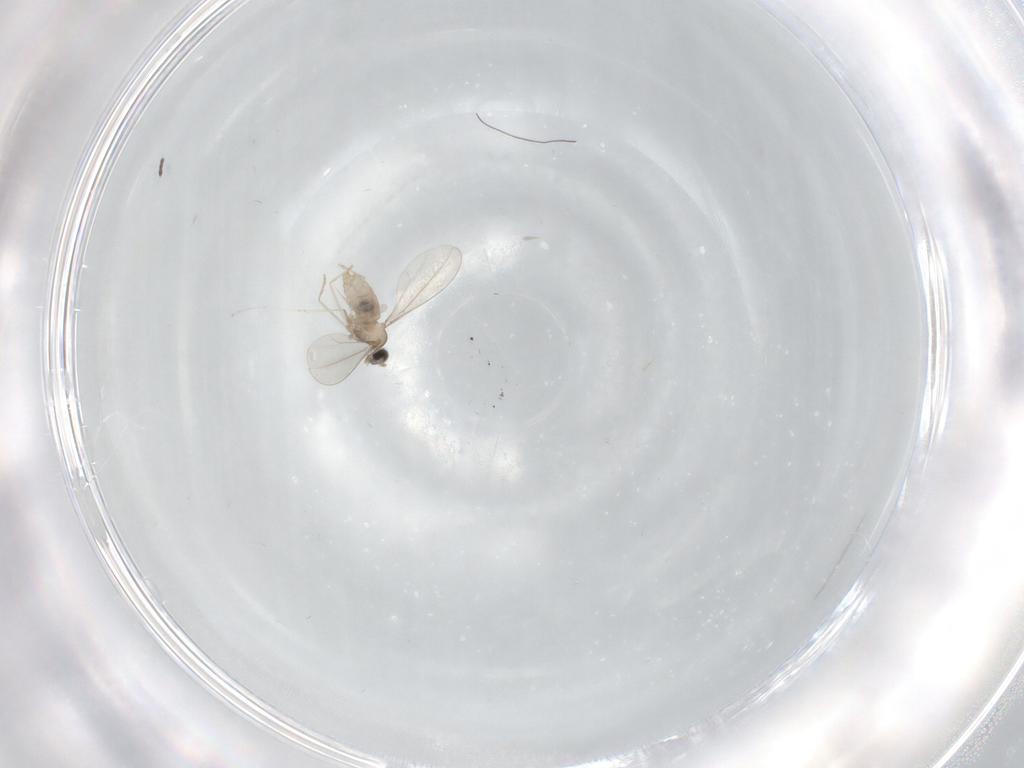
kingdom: Animalia
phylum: Arthropoda
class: Insecta
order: Diptera
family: Sciaridae
